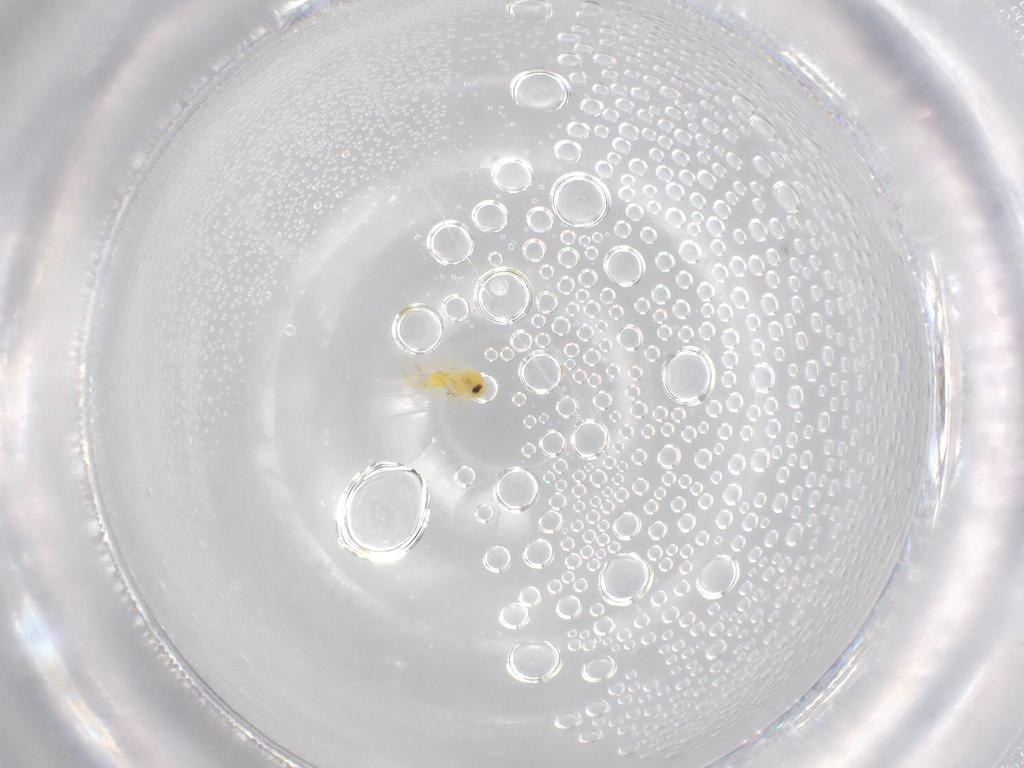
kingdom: Animalia
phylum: Arthropoda
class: Insecta
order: Hemiptera
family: Aleyrodidae
